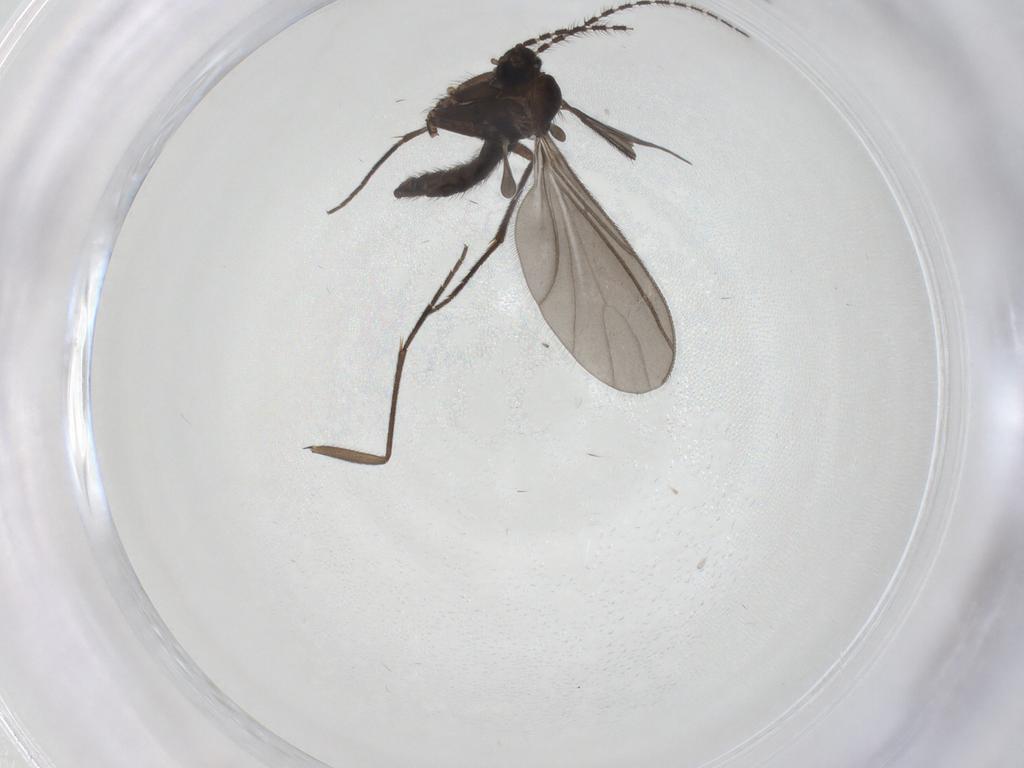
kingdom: Animalia
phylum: Arthropoda
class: Insecta
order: Diptera
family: Sciaridae
